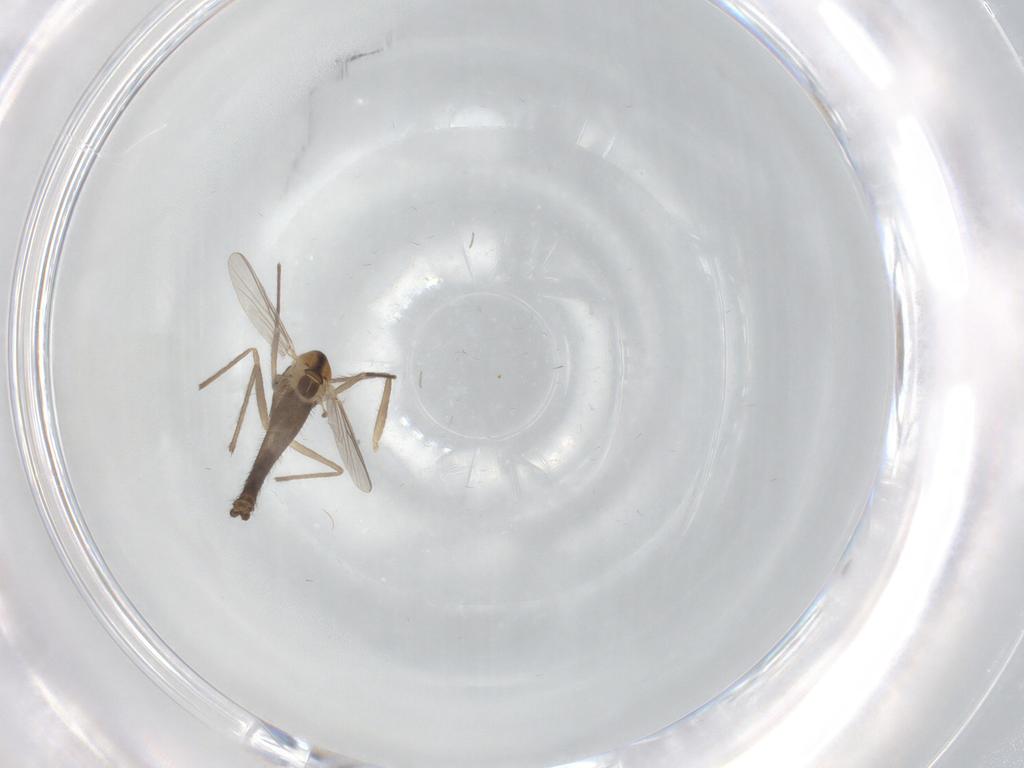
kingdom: Animalia
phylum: Arthropoda
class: Insecta
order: Diptera
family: Chironomidae
